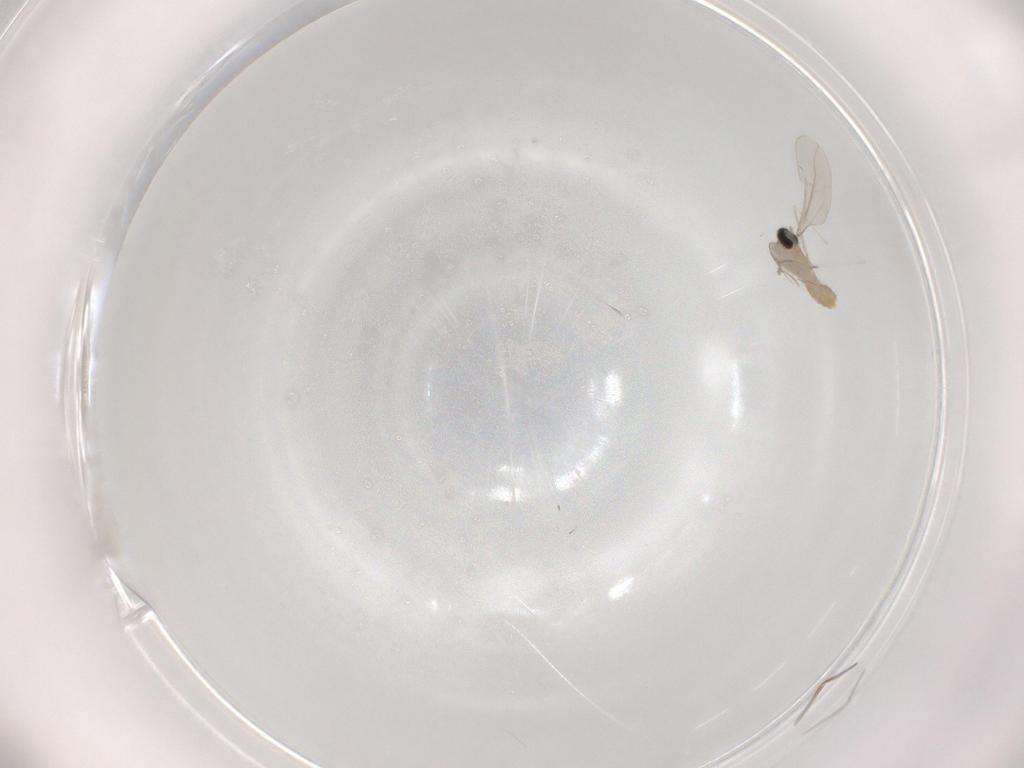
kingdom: Animalia
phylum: Arthropoda
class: Insecta
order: Diptera
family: Cecidomyiidae
